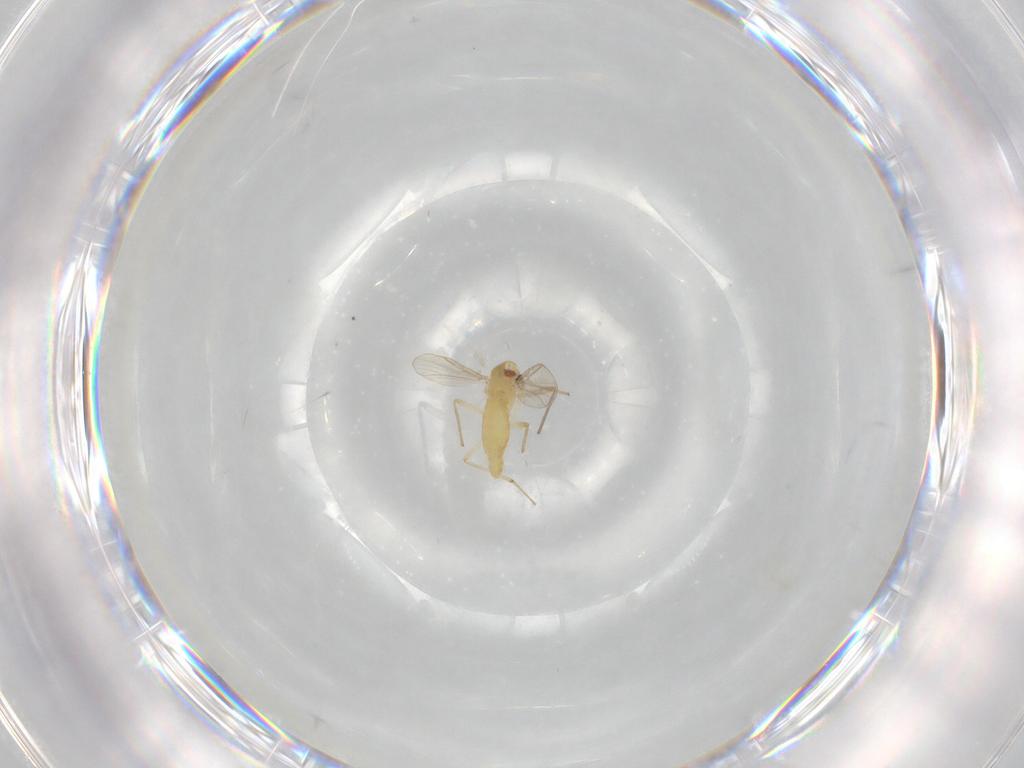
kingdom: Animalia
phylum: Arthropoda
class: Insecta
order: Diptera
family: Chironomidae
